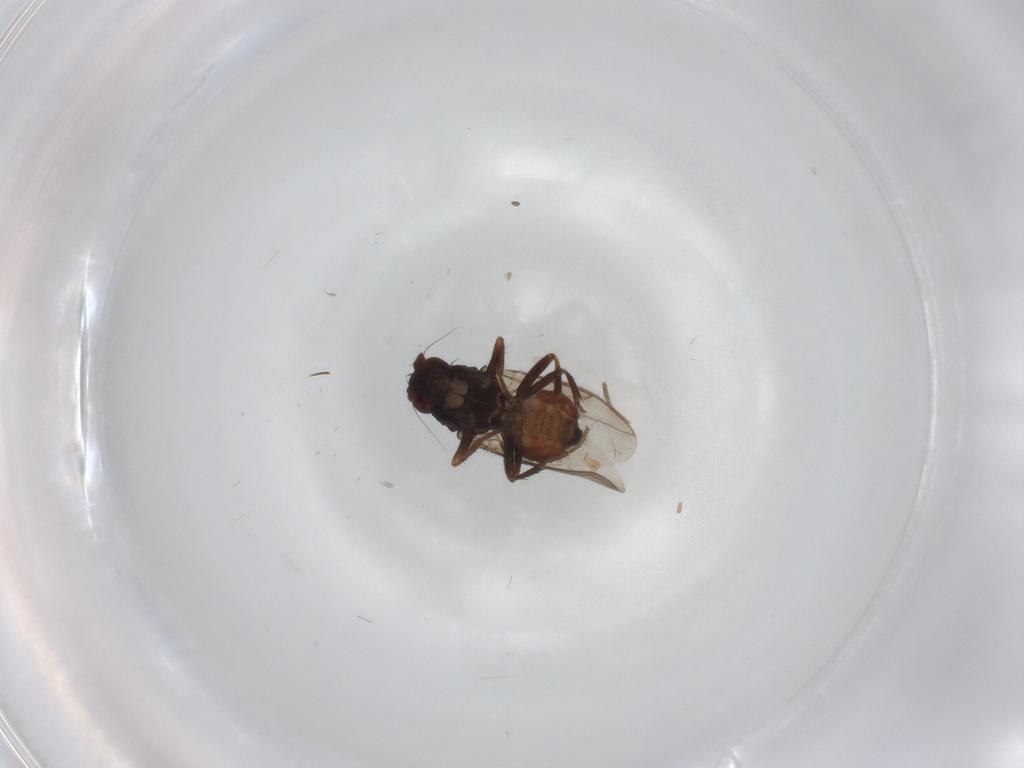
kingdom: Animalia
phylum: Arthropoda
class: Insecta
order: Diptera
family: Sphaeroceridae
